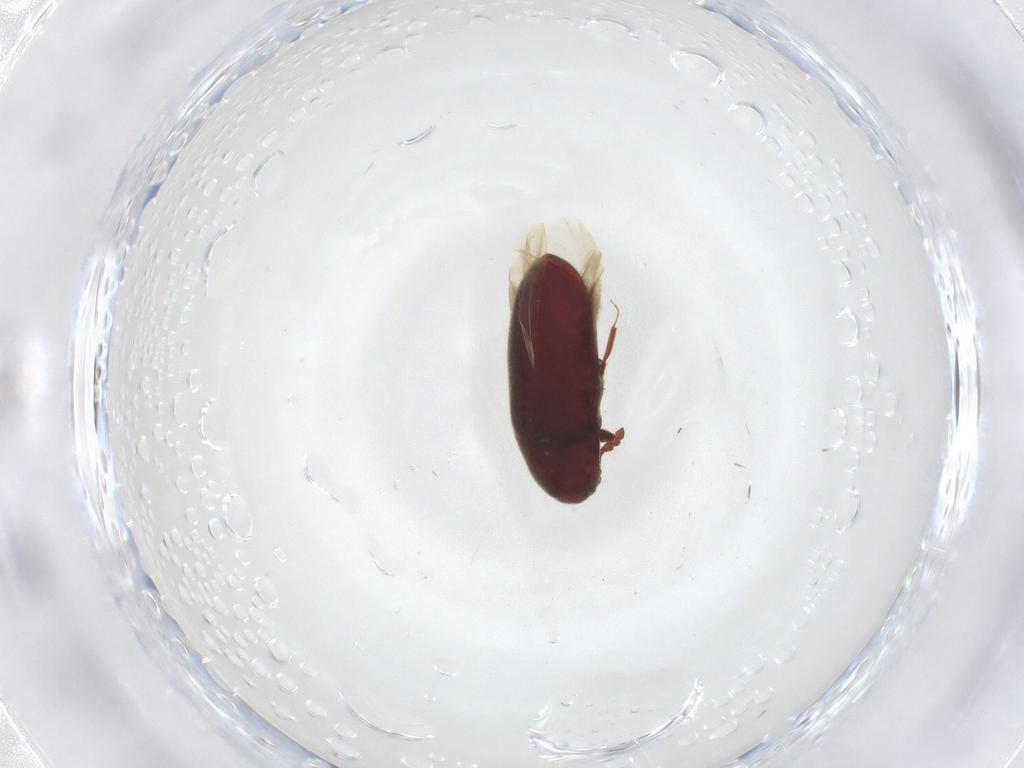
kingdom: Animalia
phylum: Arthropoda
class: Insecta
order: Coleoptera
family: Throscidae
